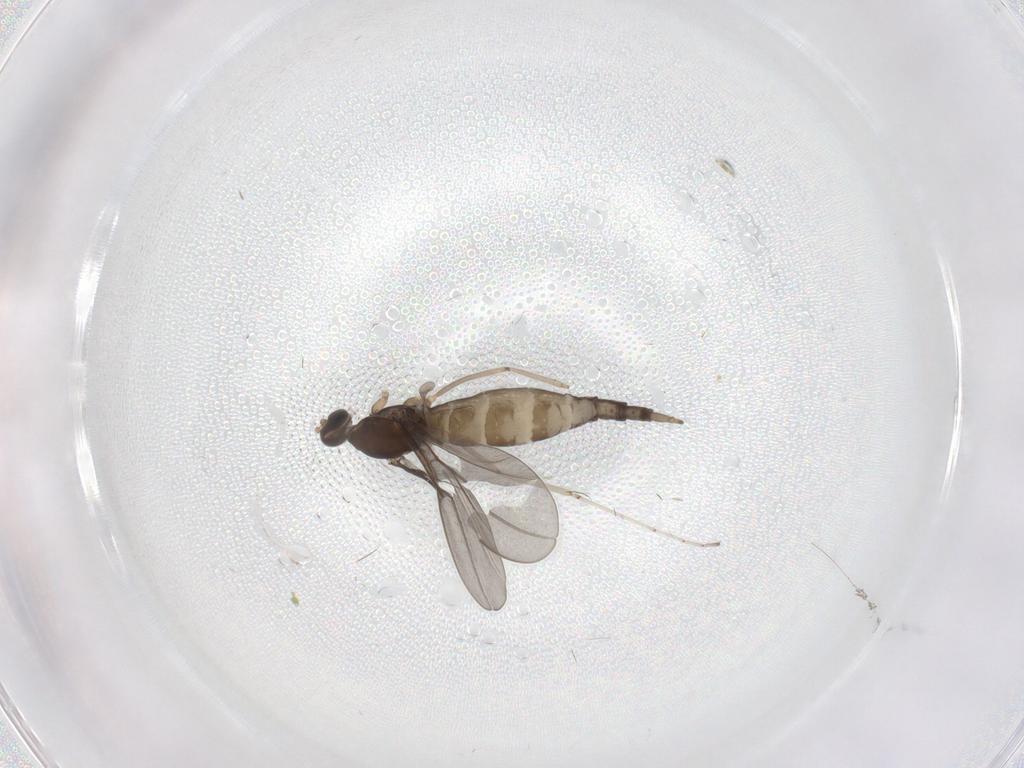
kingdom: Animalia
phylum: Arthropoda
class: Insecta
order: Diptera
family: Cecidomyiidae
